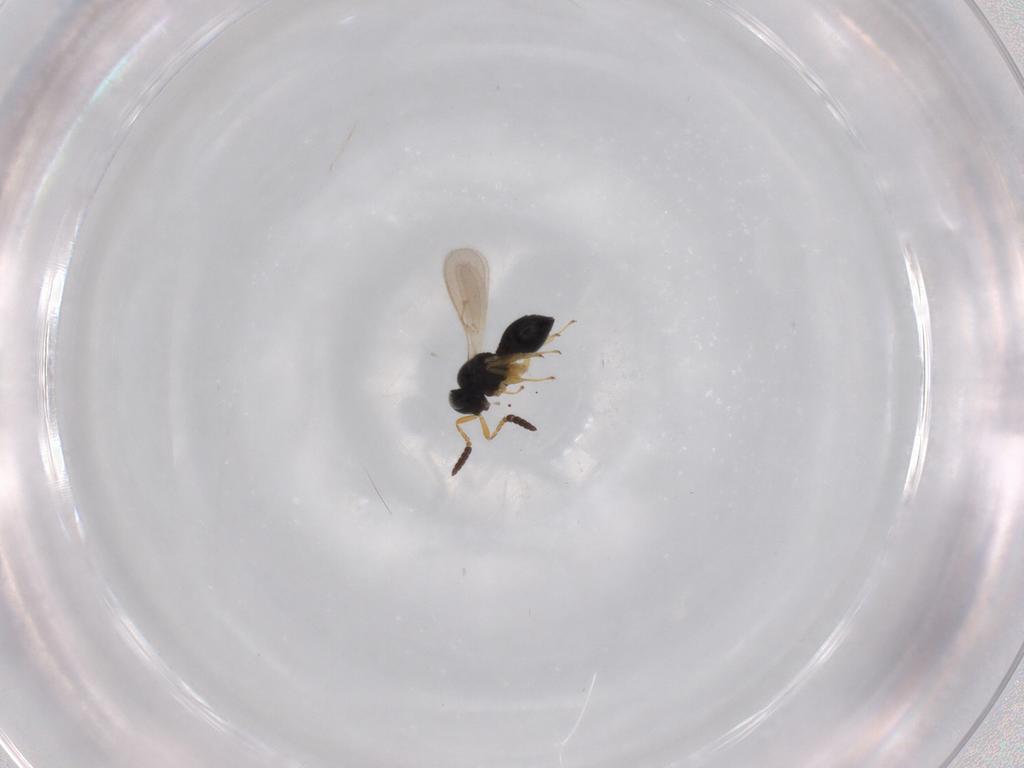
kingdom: Animalia
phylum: Arthropoda
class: Insecta
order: Hymenoptera
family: Scelionidae
